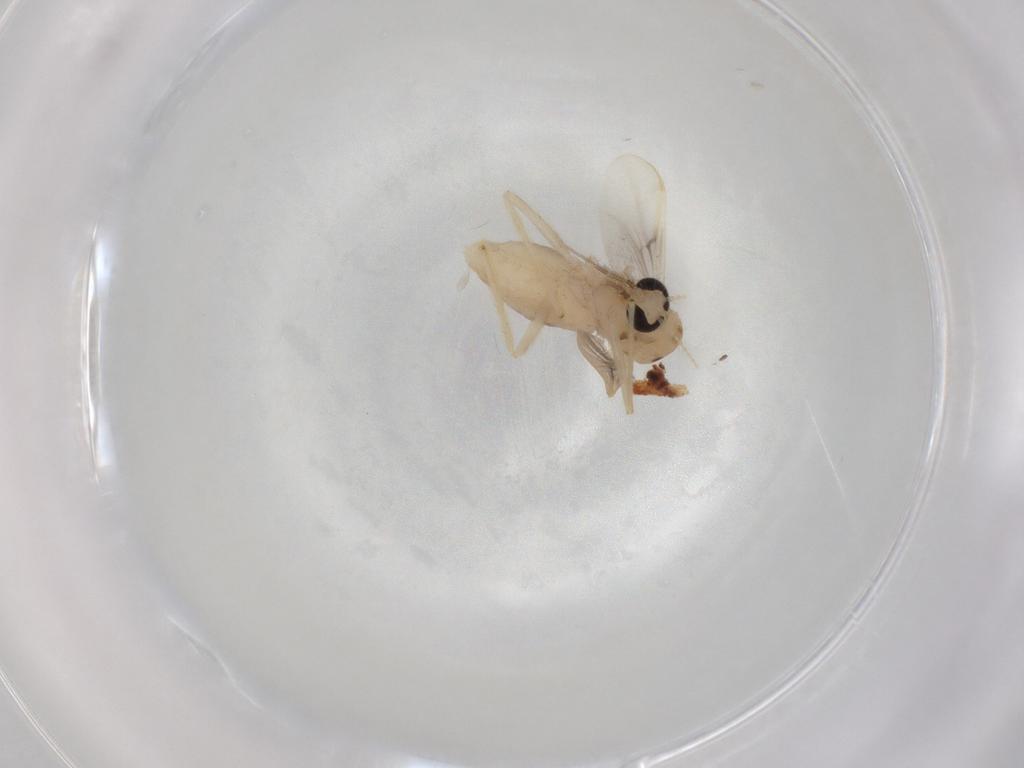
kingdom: Animalia
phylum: Arthropoda
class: Insecta
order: Diptera
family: Chironomidae
